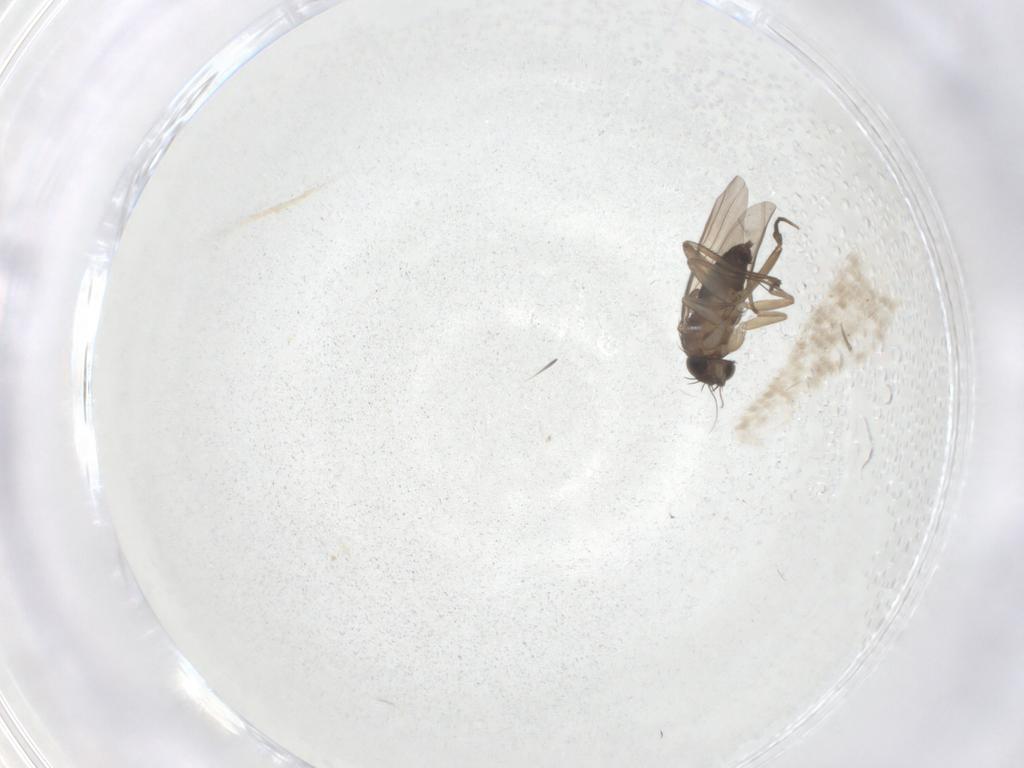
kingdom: Animalia
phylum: Arthropoda
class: Insecta
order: Diptera
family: Phoridae
